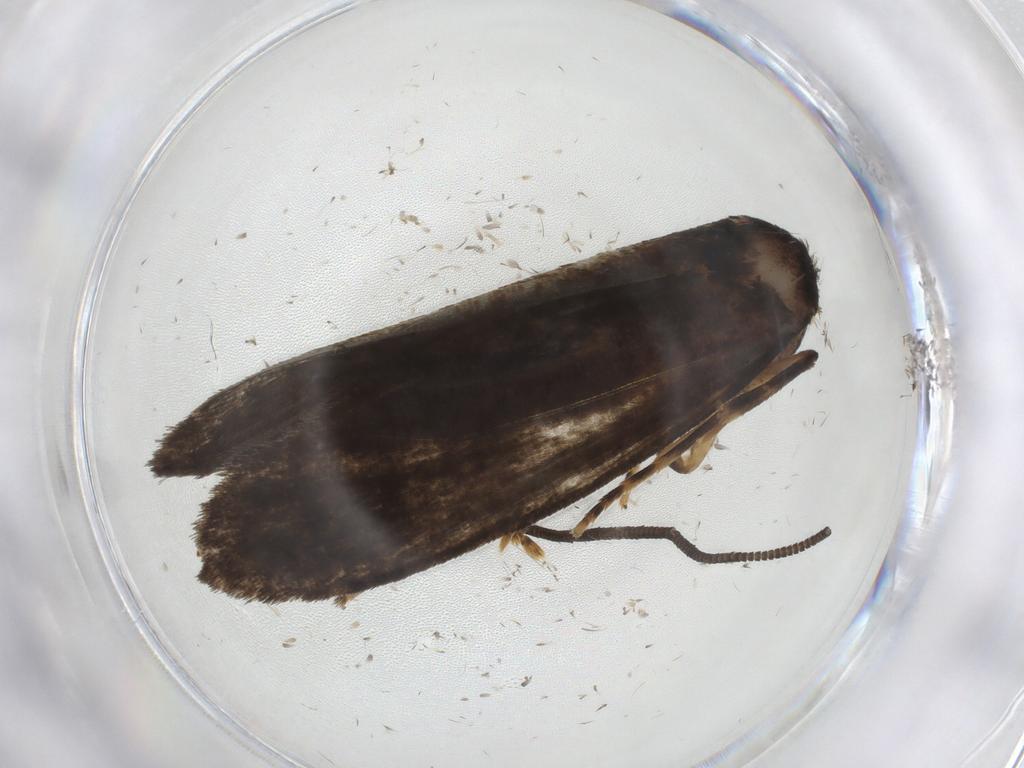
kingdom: Animalia
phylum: Arthropoda
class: Insecta
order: Lepidoptera
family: Tineidae
